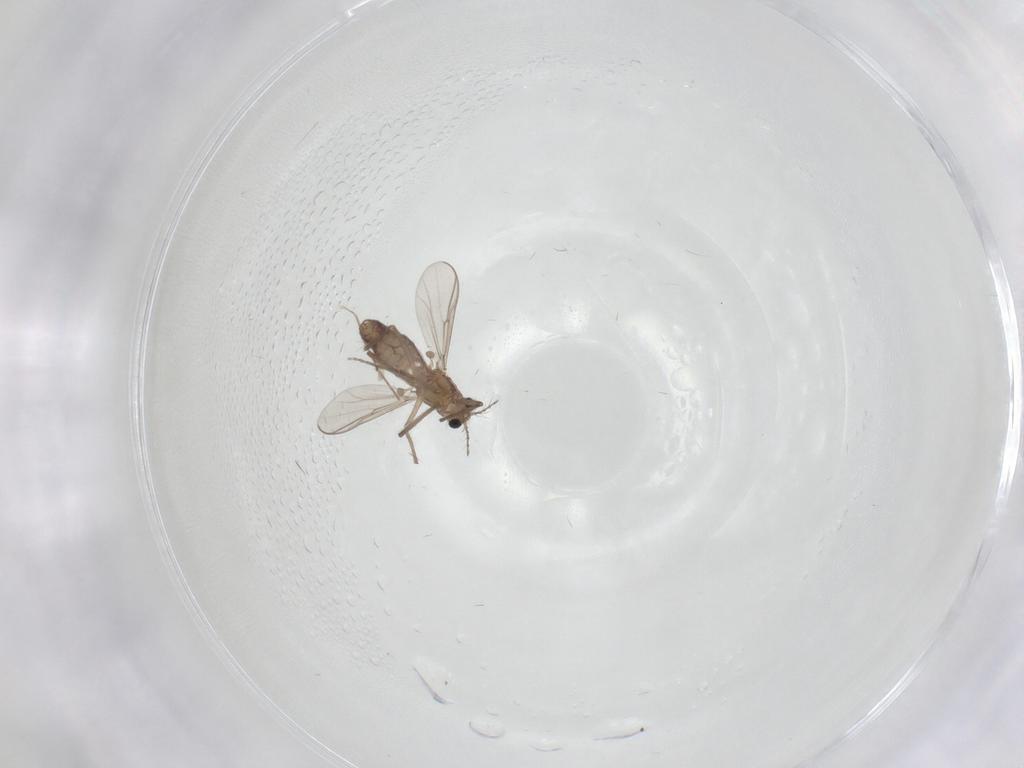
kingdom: Animalia
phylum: Arthropoda
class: Insecta
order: Diptera
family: Chironomidae
